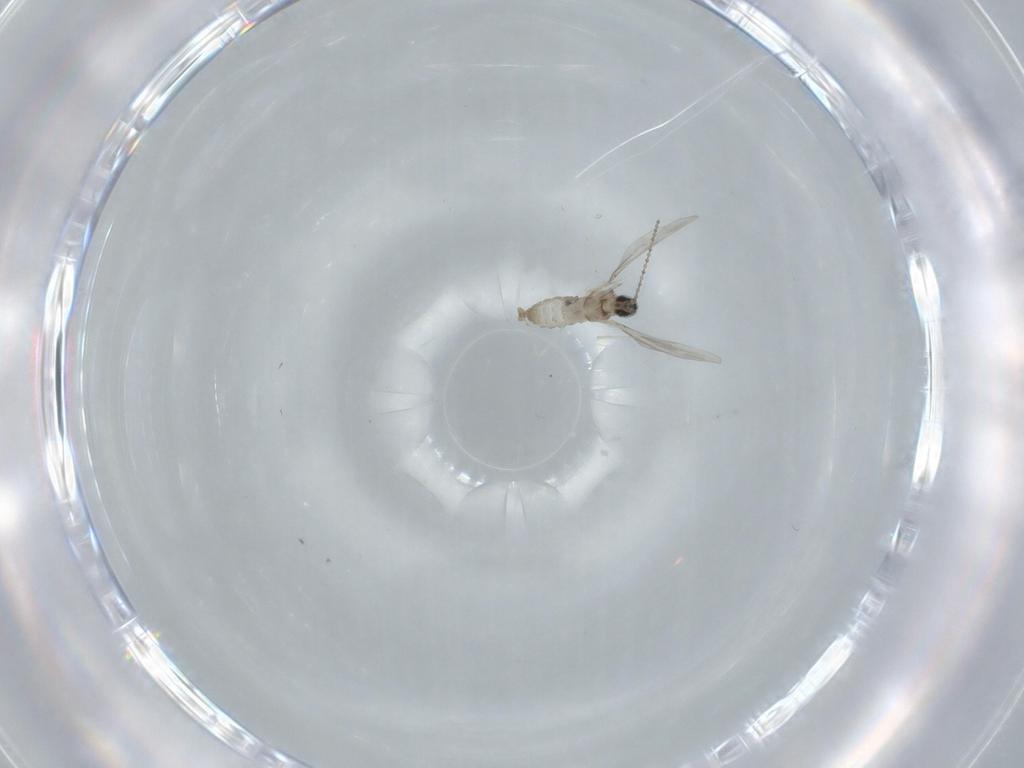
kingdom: Animalia
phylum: Arthropoda
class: Insecta
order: Diptera
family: Cecidomyiidae
